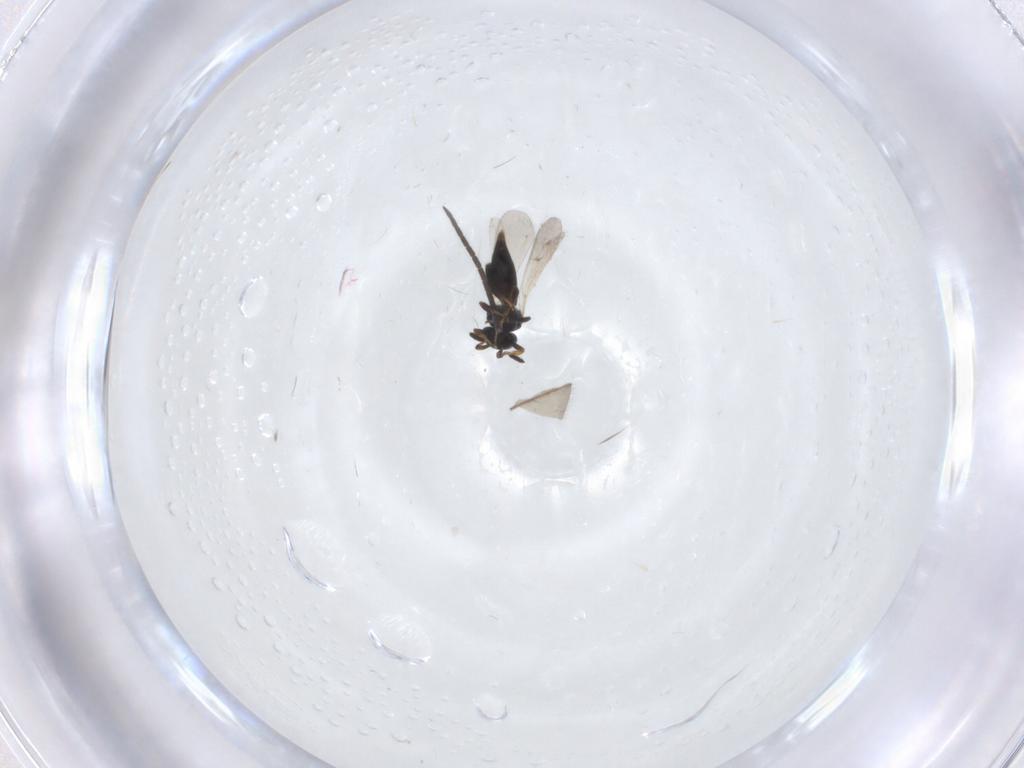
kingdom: Animalia
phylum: Arthropoda
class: Insecta
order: Hymenoptera
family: Platygastridae
